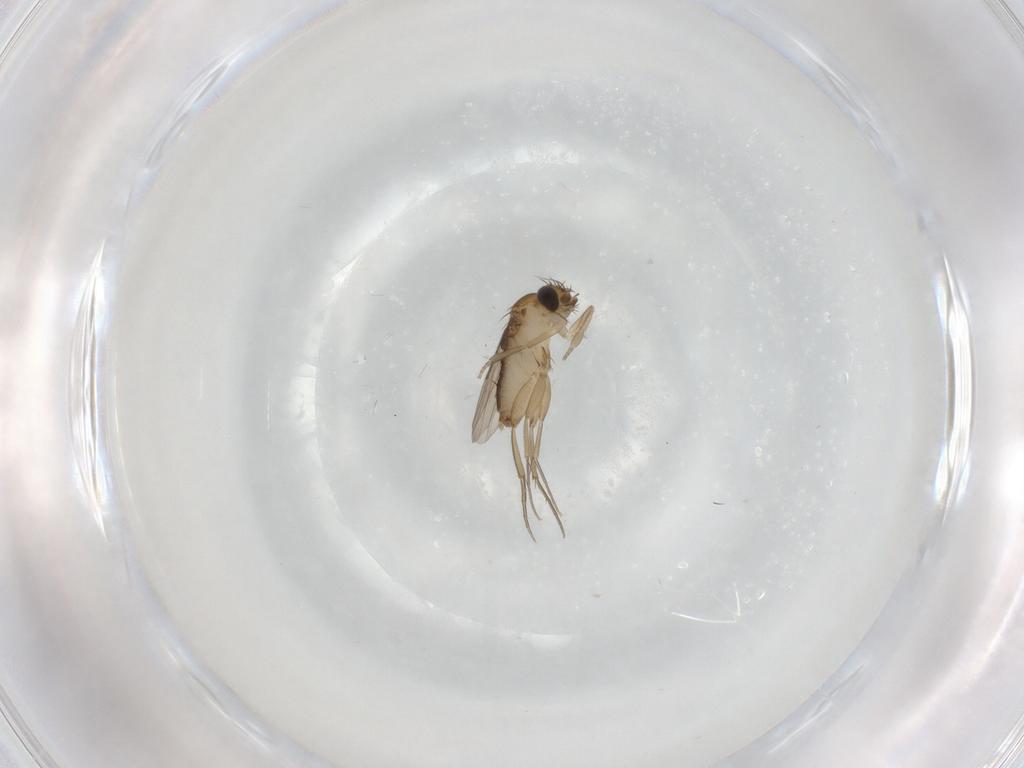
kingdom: Animalia
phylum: Arthropoda
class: Insecta
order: Diptera
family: Phoridae
